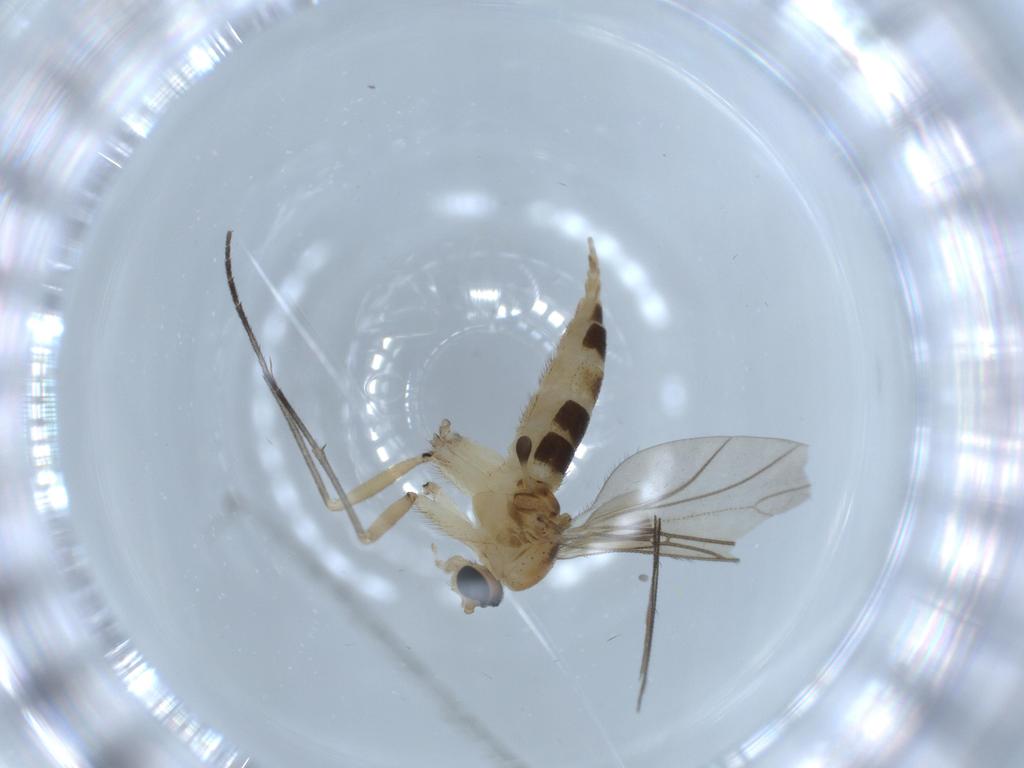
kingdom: Animalia
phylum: Arthropoda
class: Insecta
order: Diptera
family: Sciaridae
